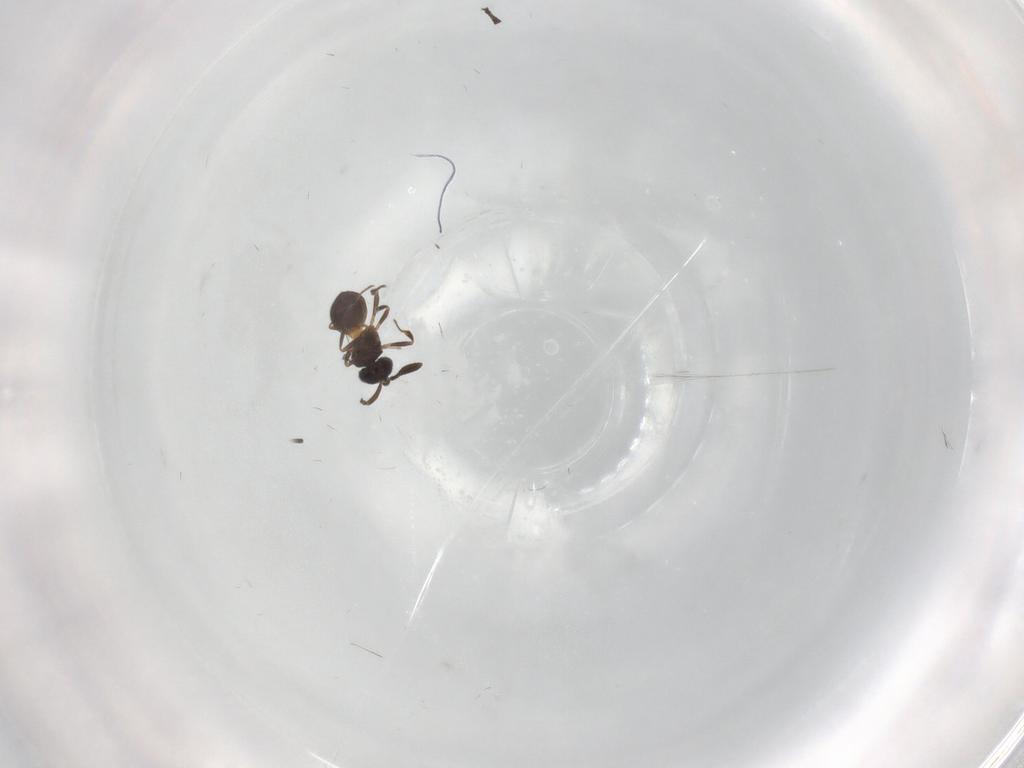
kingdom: Animalia
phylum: Arthropoda
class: Insecta
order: Hymenoptera
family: Scelionidae
